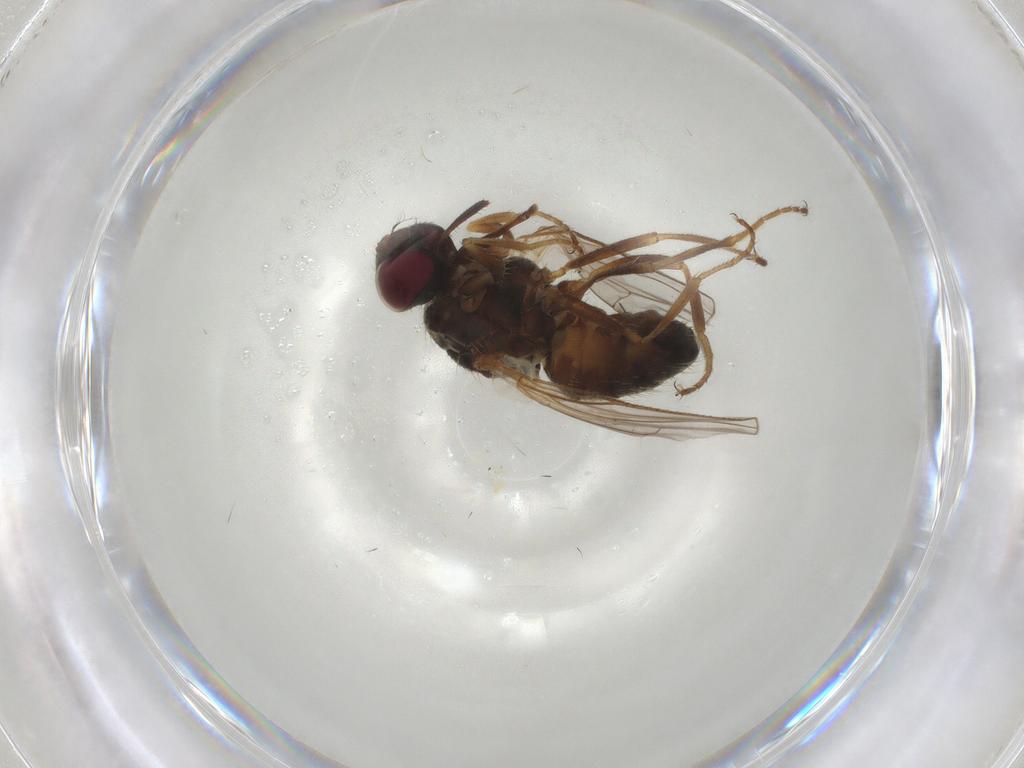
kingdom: Animalia
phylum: Arthropoda
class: Insecta
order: Diptera
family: Ceratopogonidae
